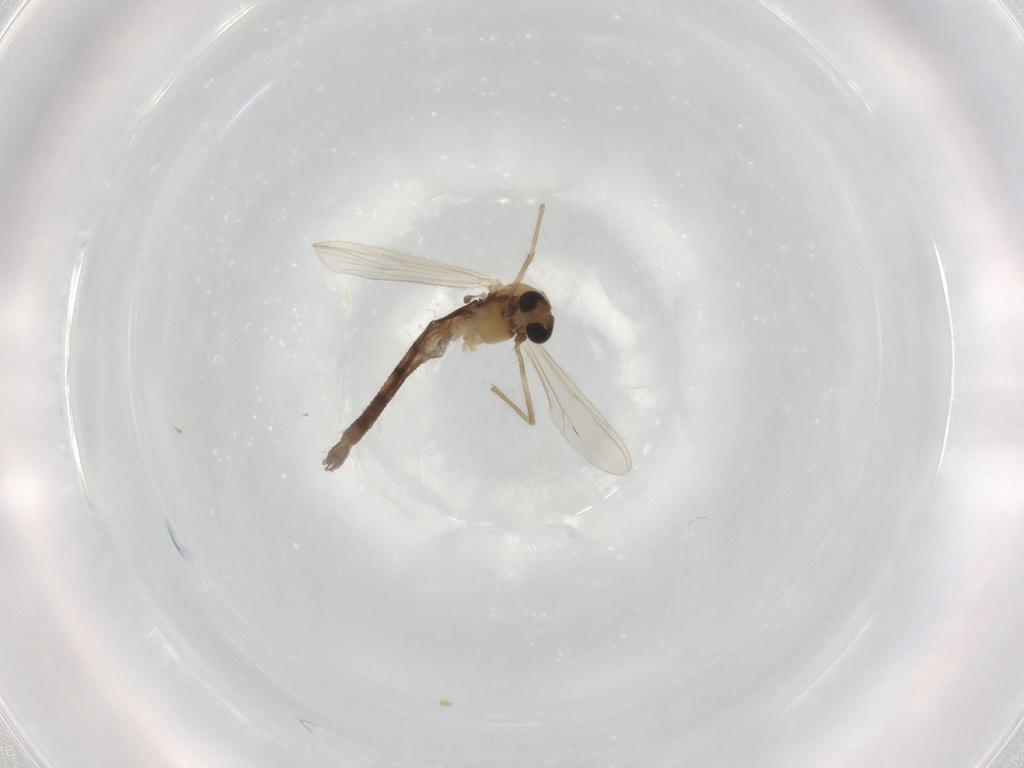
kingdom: Animalia
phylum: Arthropoda
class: Insecta
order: Diptera
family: Chironomidae
